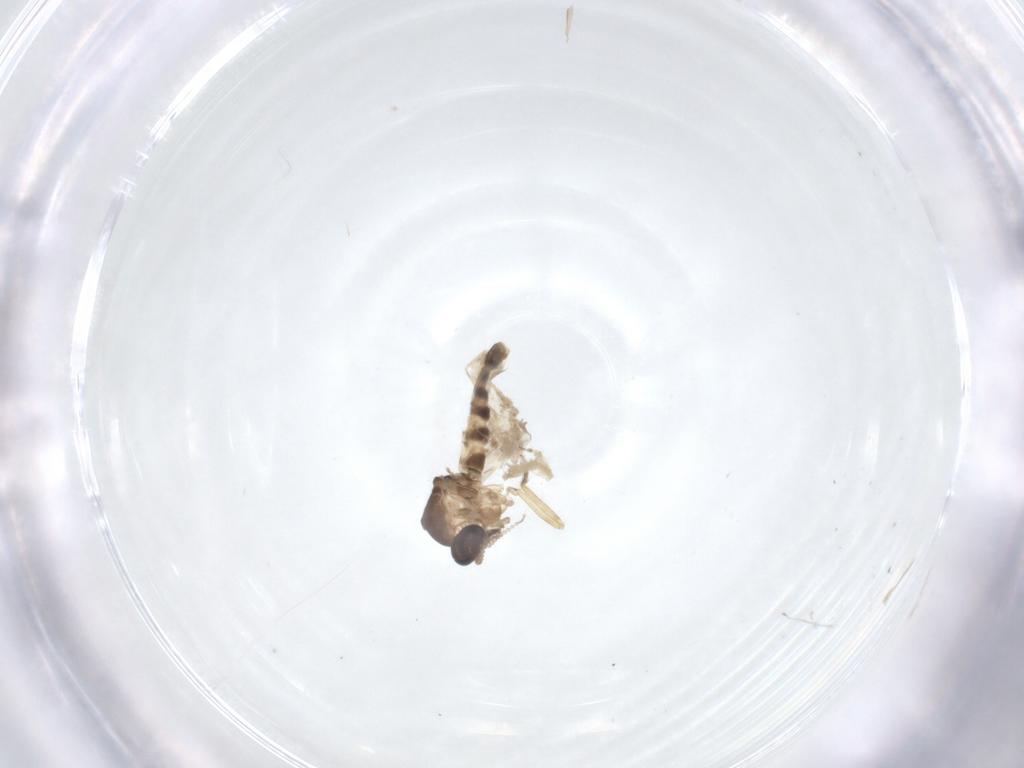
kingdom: Animalia
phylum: Arthropoda
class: Insecta
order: Diptera
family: Ceratopogonidae
